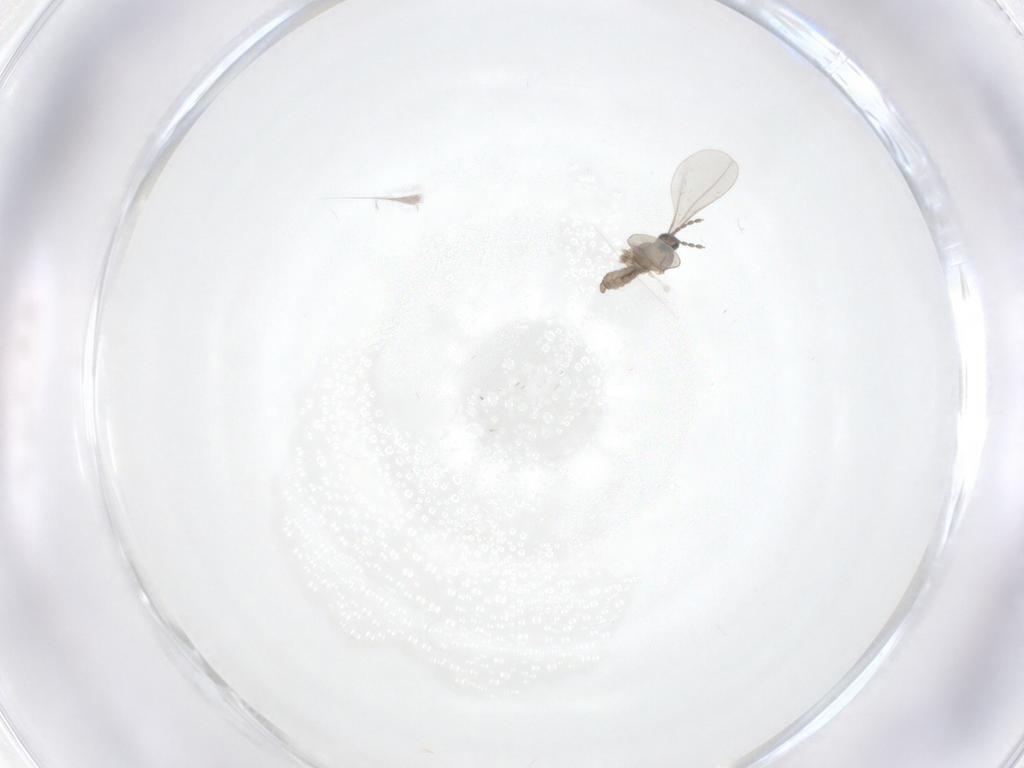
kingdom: Animalia
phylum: Arthropoda
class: Insecta
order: Diptera
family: Cecidomyiidae
